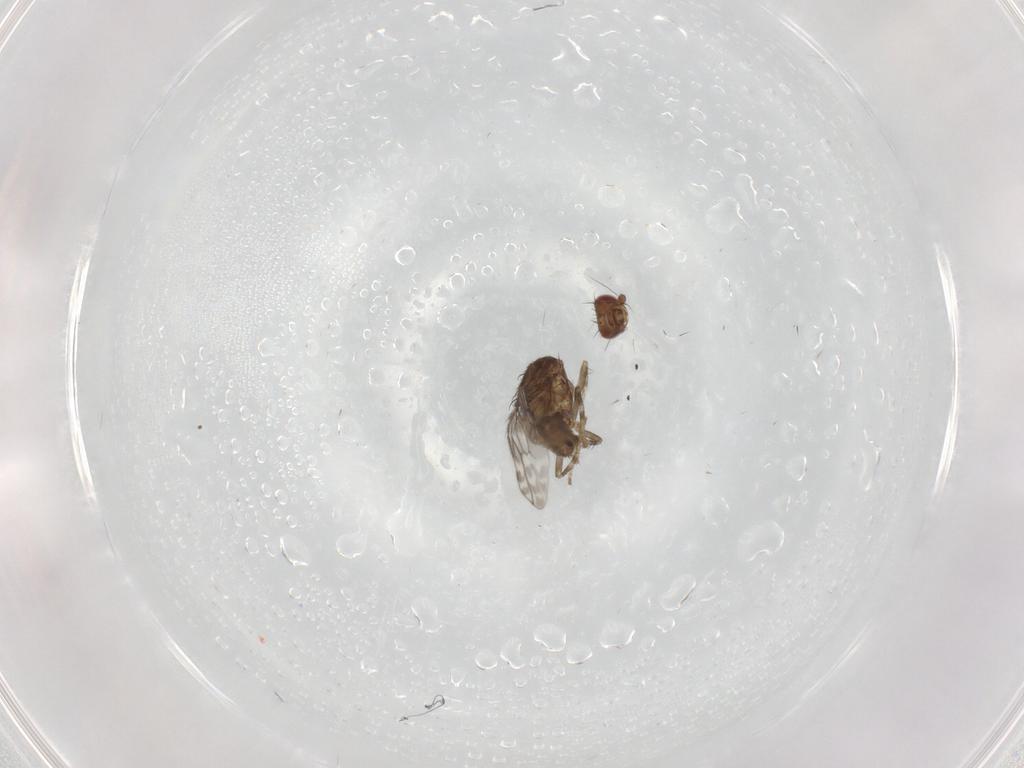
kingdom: Animalia
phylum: Arthropoda
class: Insecta
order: Diptera
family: Sphaeroceridae
